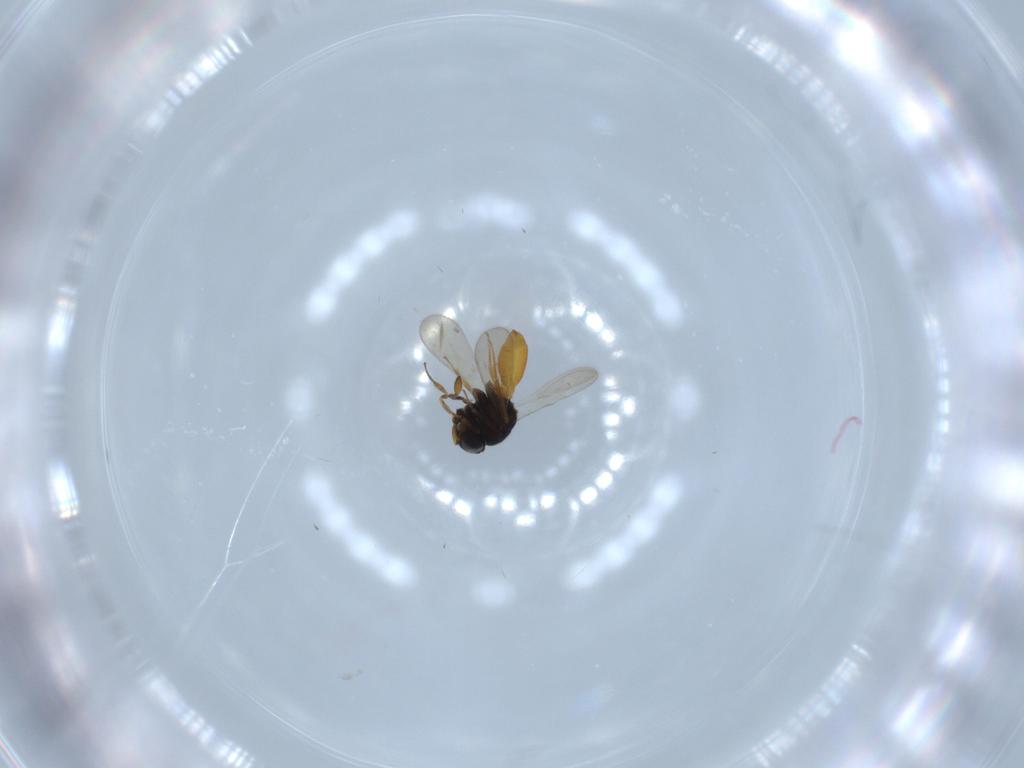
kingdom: Animalia
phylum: Arthropoda
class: Insecta
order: Hymenoptera
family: Scelionidae
